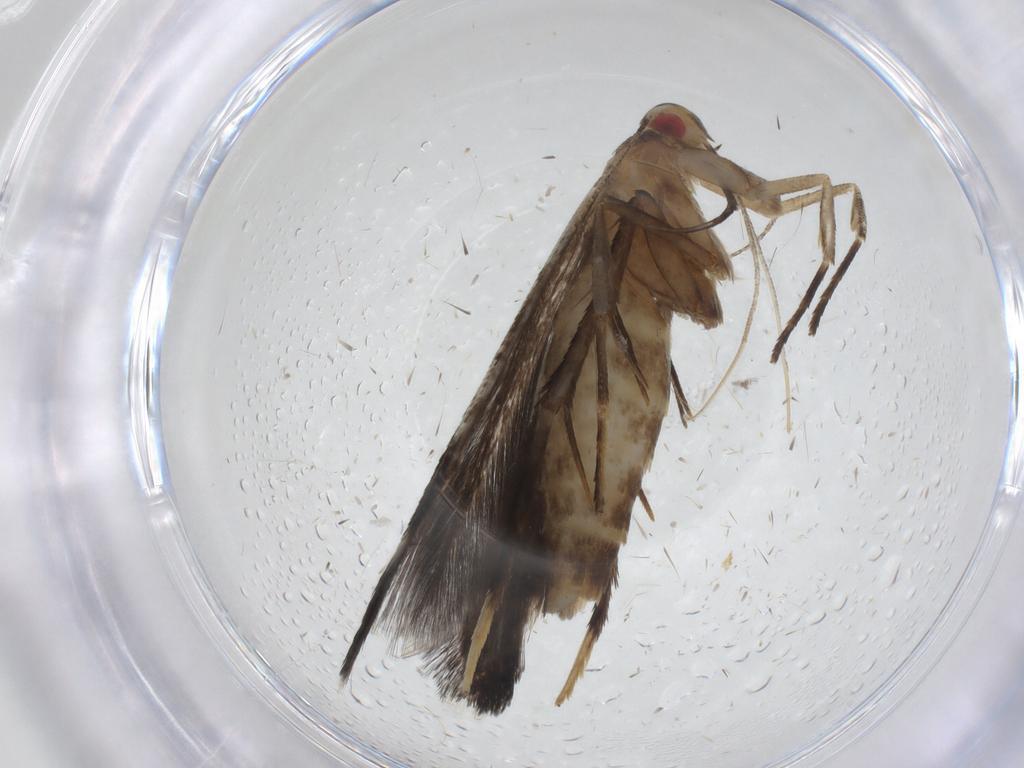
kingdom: Animalia
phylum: Arthropoda
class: Insecta
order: Lepidoptera
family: Cosmopterigidae
